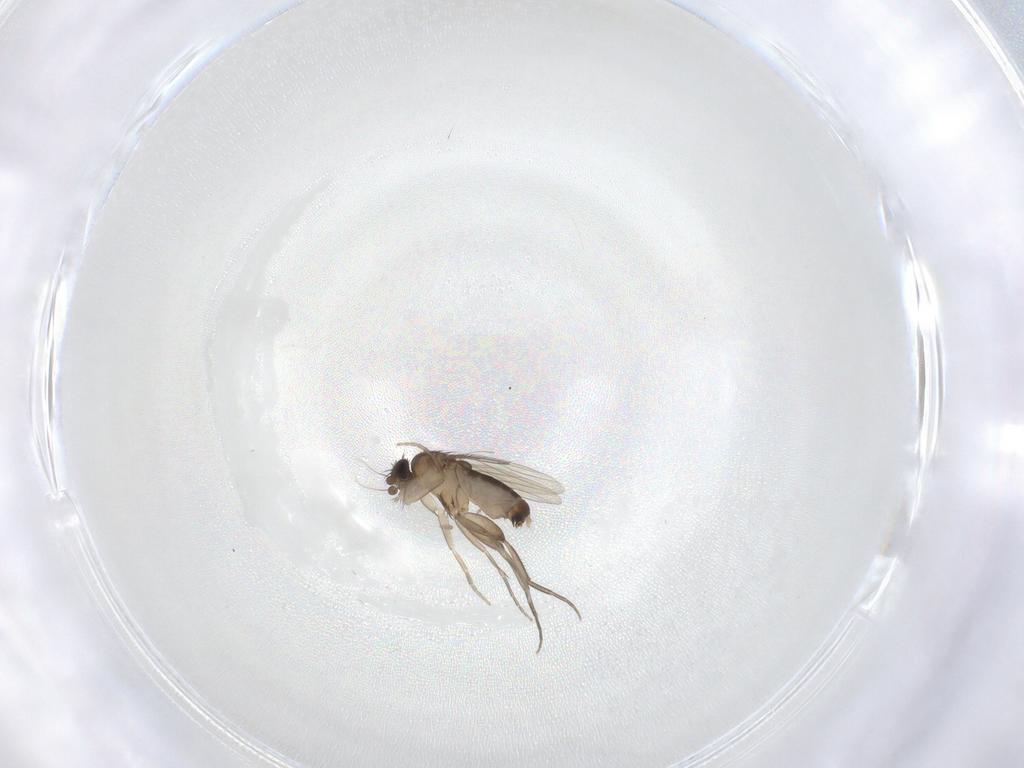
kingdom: Animalia
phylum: Arthropoda
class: Insecta
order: Diptera
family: Phoridae
